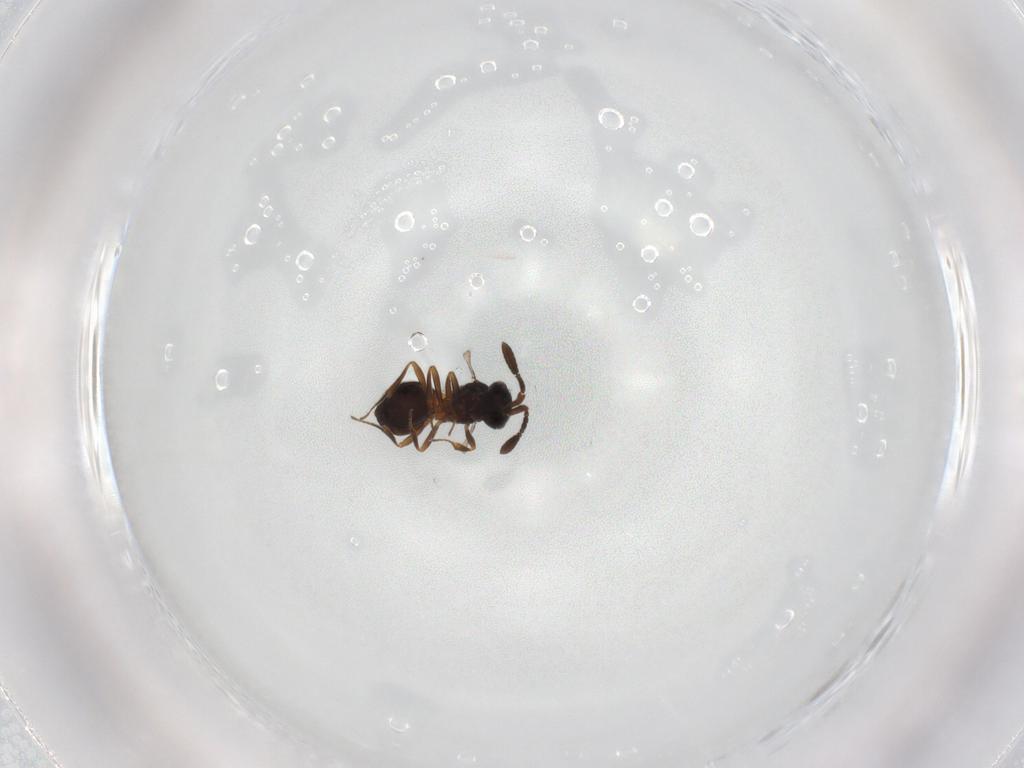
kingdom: Animalia
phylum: Arthropoda
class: Insecta
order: Hymenoptera
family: Scelionidae
